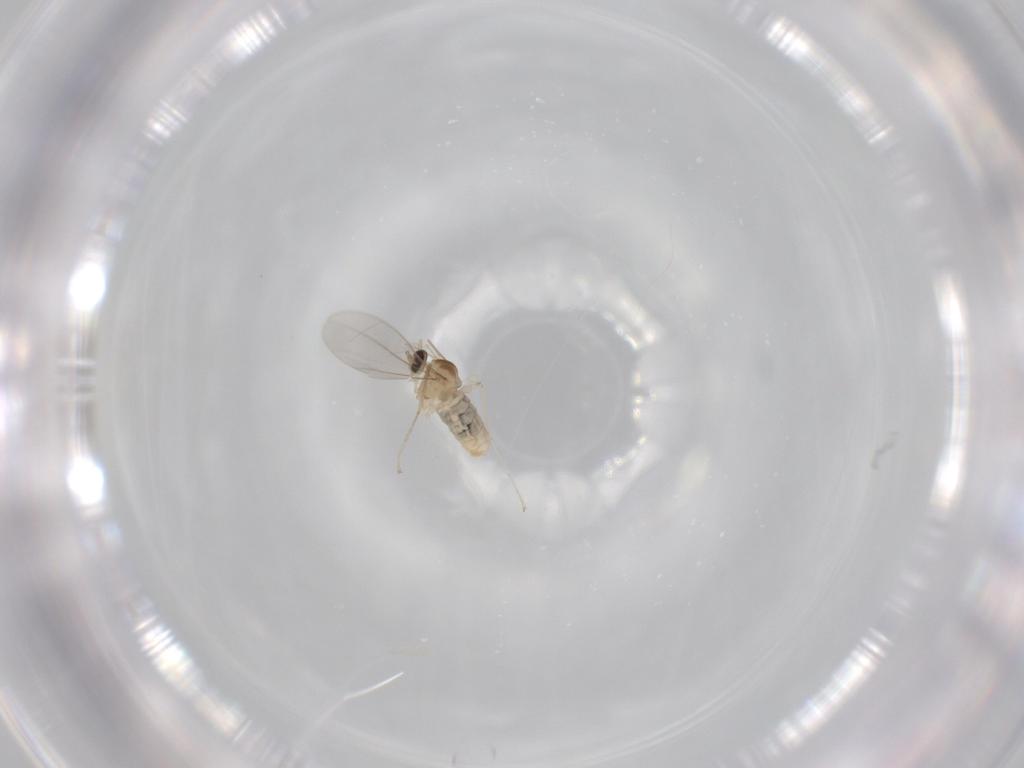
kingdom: Animalia
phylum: Arthropoda
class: Insecta
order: Diptera
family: Cecidomyiidae
